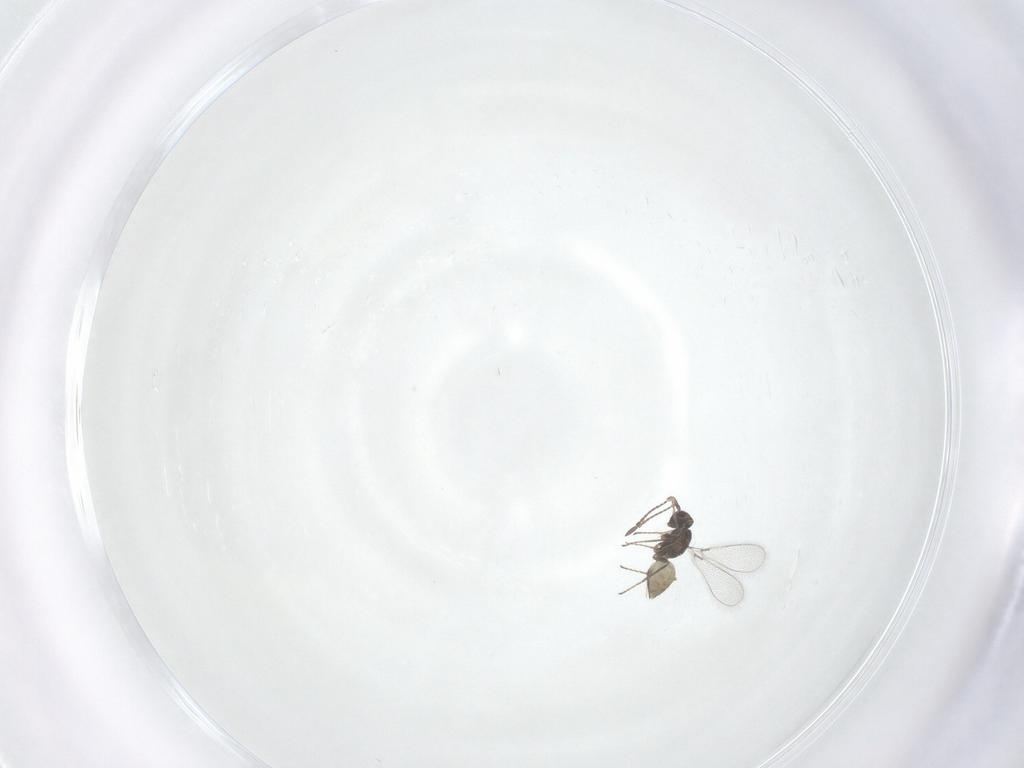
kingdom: Animalia
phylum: Arthropoda
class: Insecta
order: Hymenoptera
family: Mymaridae
